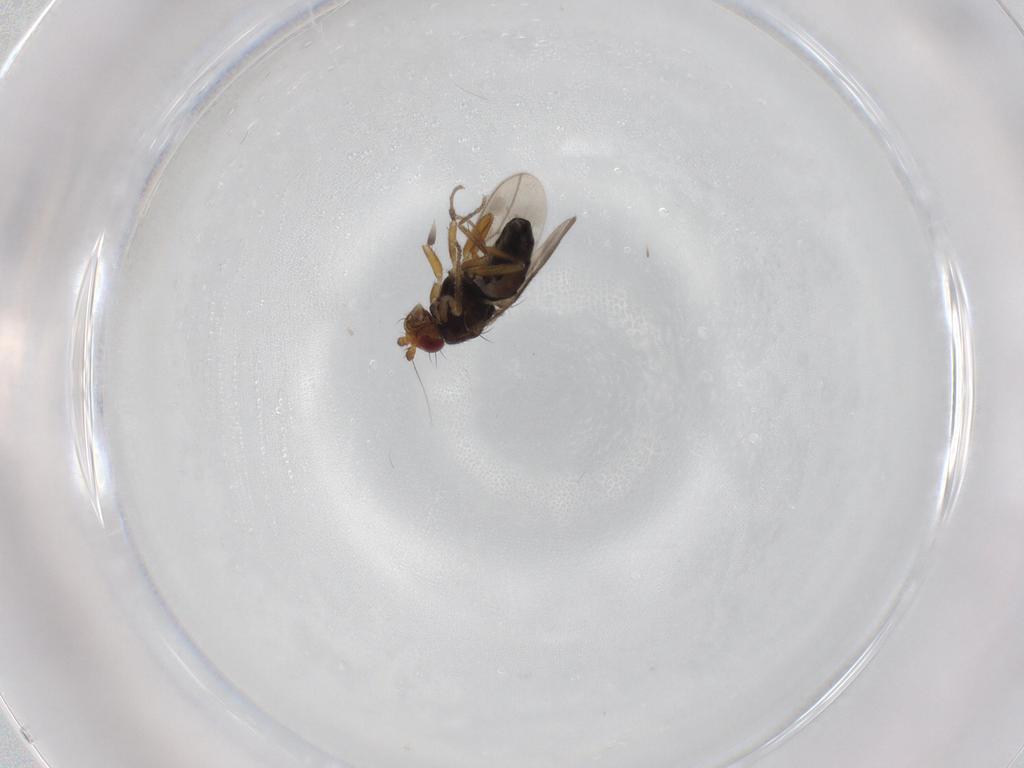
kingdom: Animalia
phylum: Arthropoda
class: Insecta
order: Diptera
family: Sphaeroceridae
